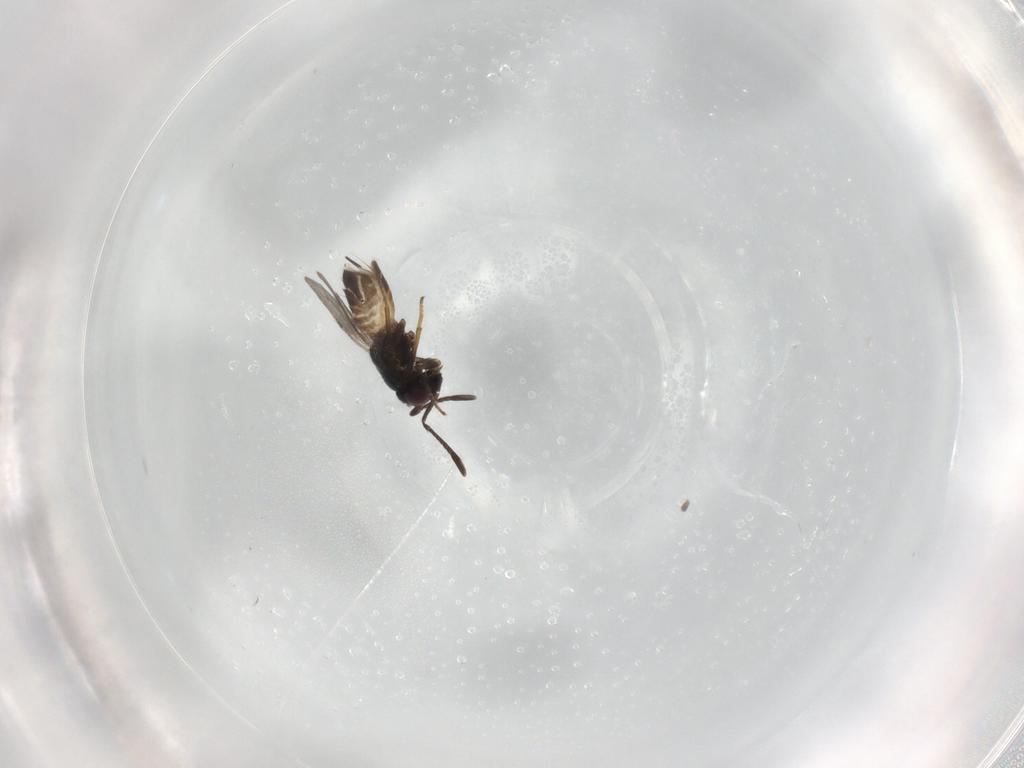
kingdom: Animalia
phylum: Arthropoda
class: Insecta
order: Hymenoptera
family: Encyrtidae
